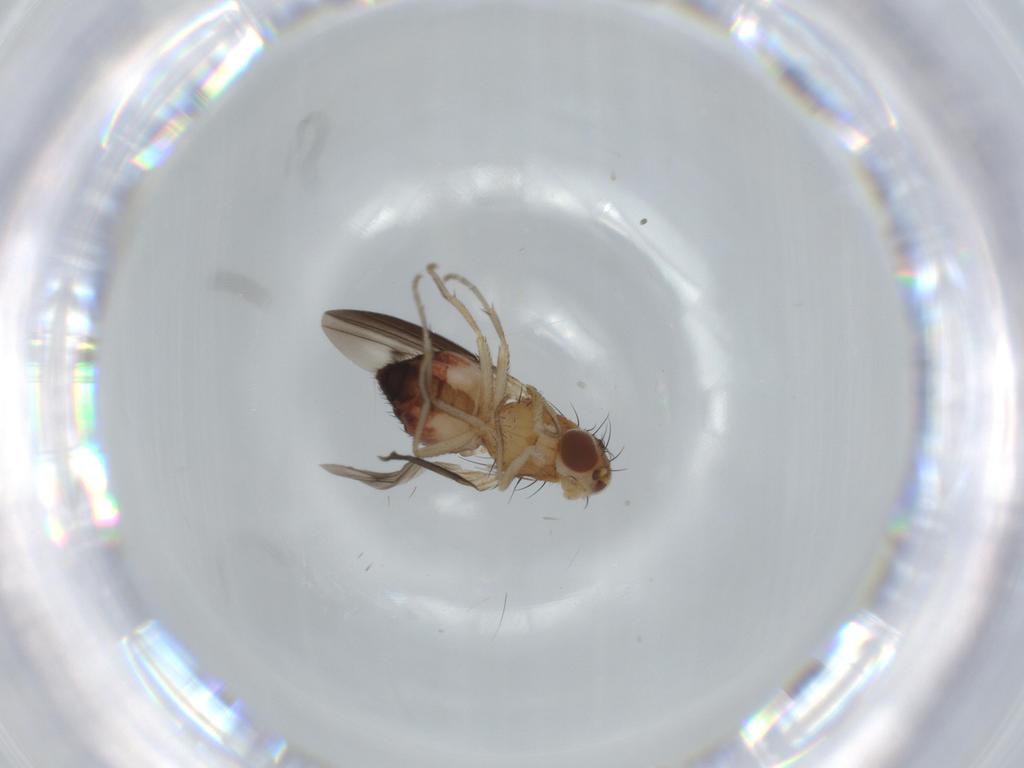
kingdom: Animalia
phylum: Arthropoda
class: Insecta
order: Diptera
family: Heleomyzidae
